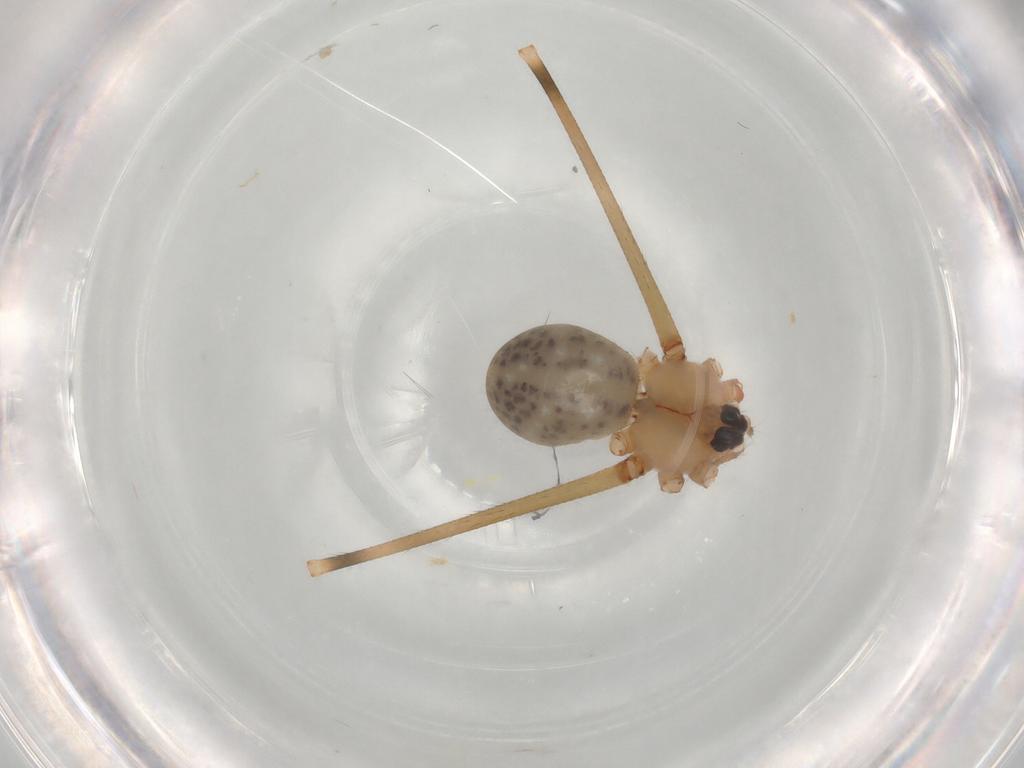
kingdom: Animalia
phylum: Arthropoda
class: Arachnida
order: Araneae
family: Pholcidae
